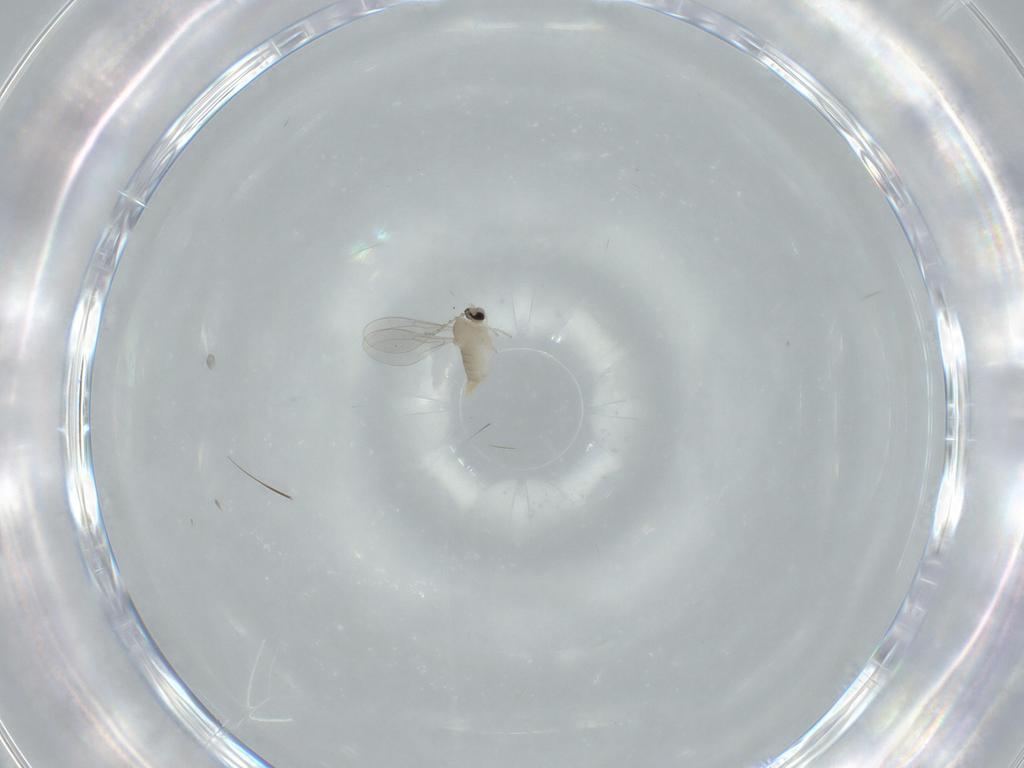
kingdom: Animalia
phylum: Arthropoda
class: Insecta
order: Diptera
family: Cecidomyiidae
